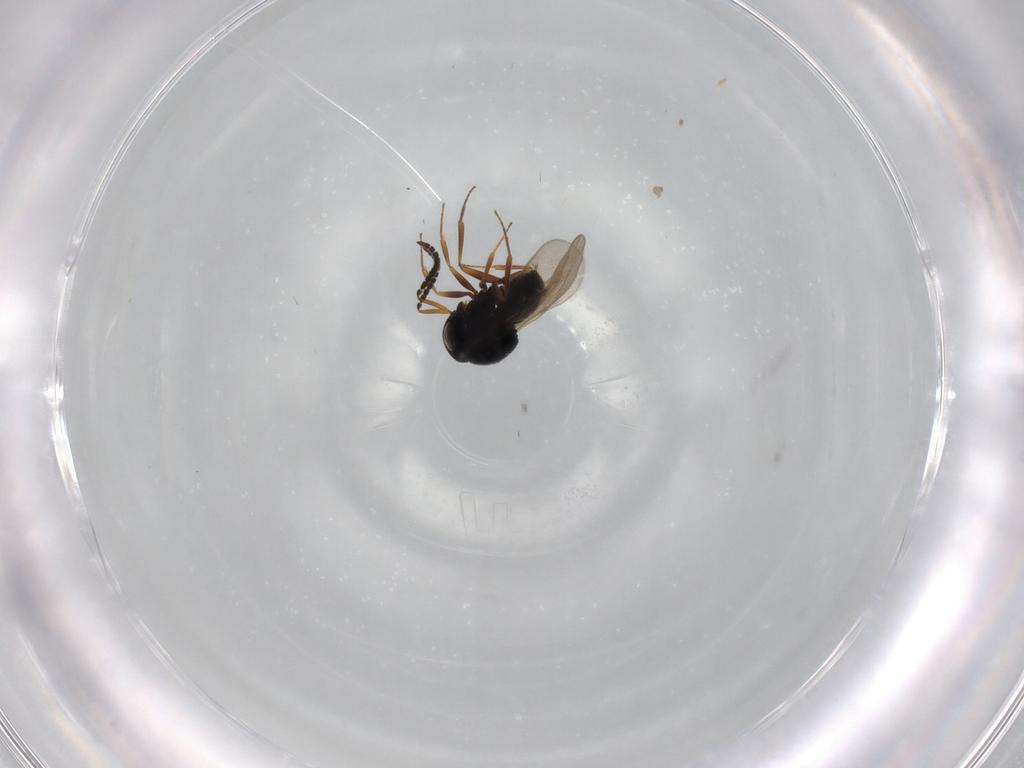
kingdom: Animalia
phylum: Arthropoda
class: Insecta
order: Hymenoptera
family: Scelionidae
